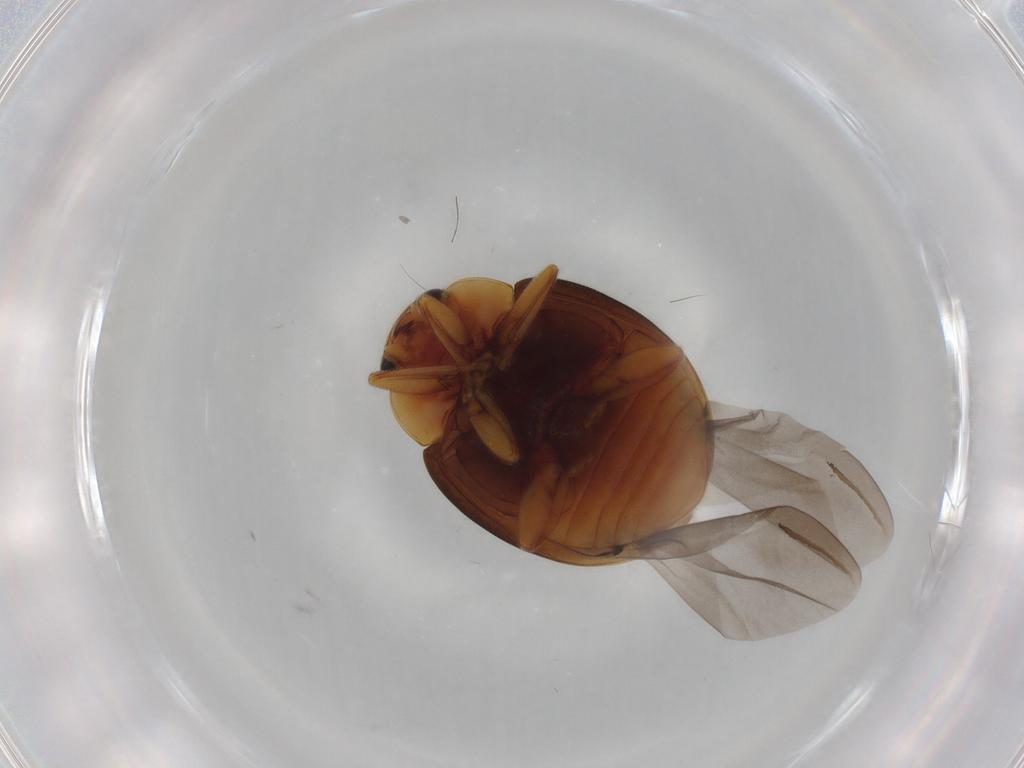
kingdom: Animalia
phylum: Arthropoda
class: Insecta
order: Coleoptera
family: Coccinellidae
